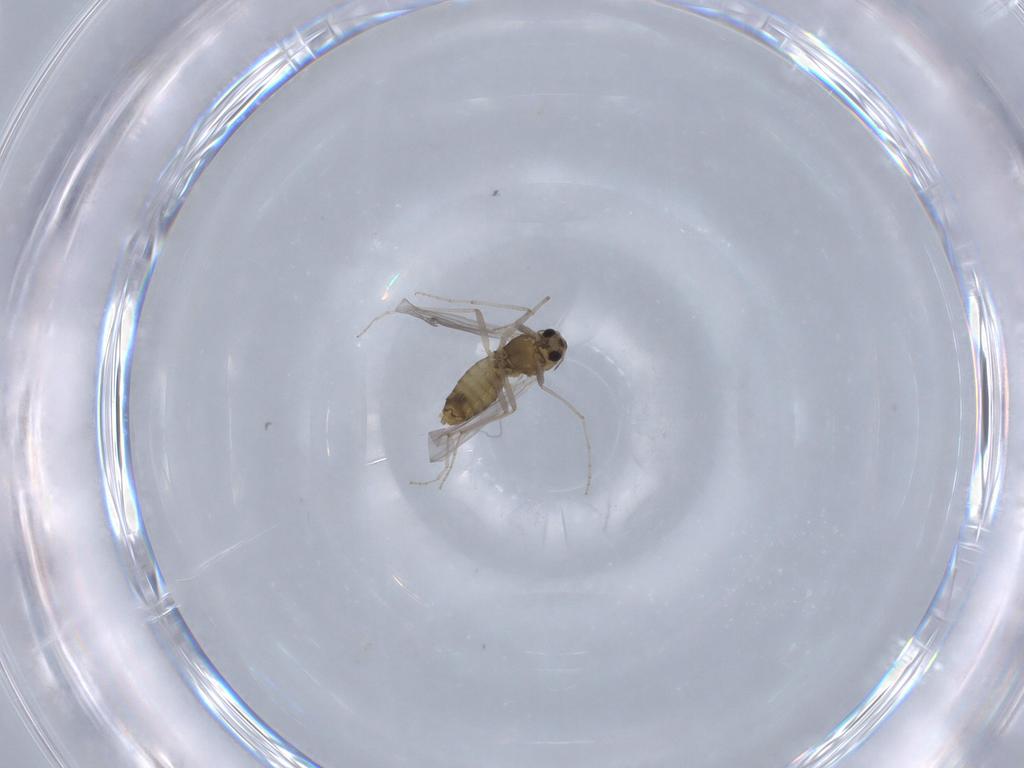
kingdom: Animalia
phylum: Arthropoda
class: Insecta
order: Diptera
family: Chironomidae
